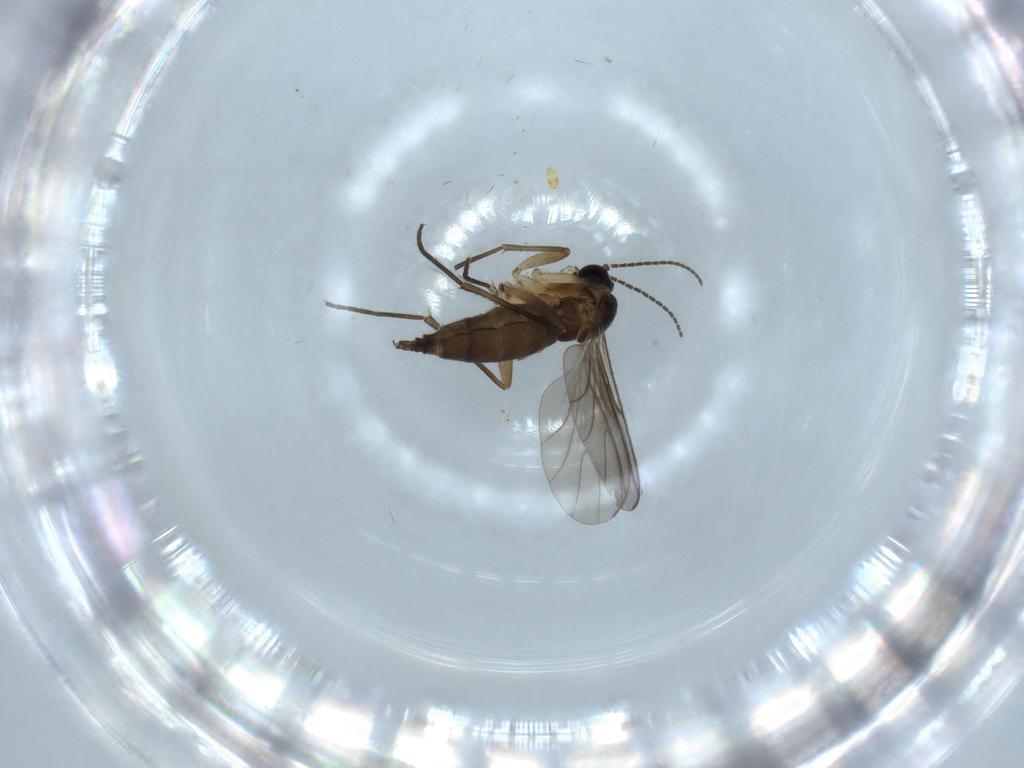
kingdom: Animalia
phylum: Arthropoda
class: Insecta
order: Diptera
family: Sciaridae
